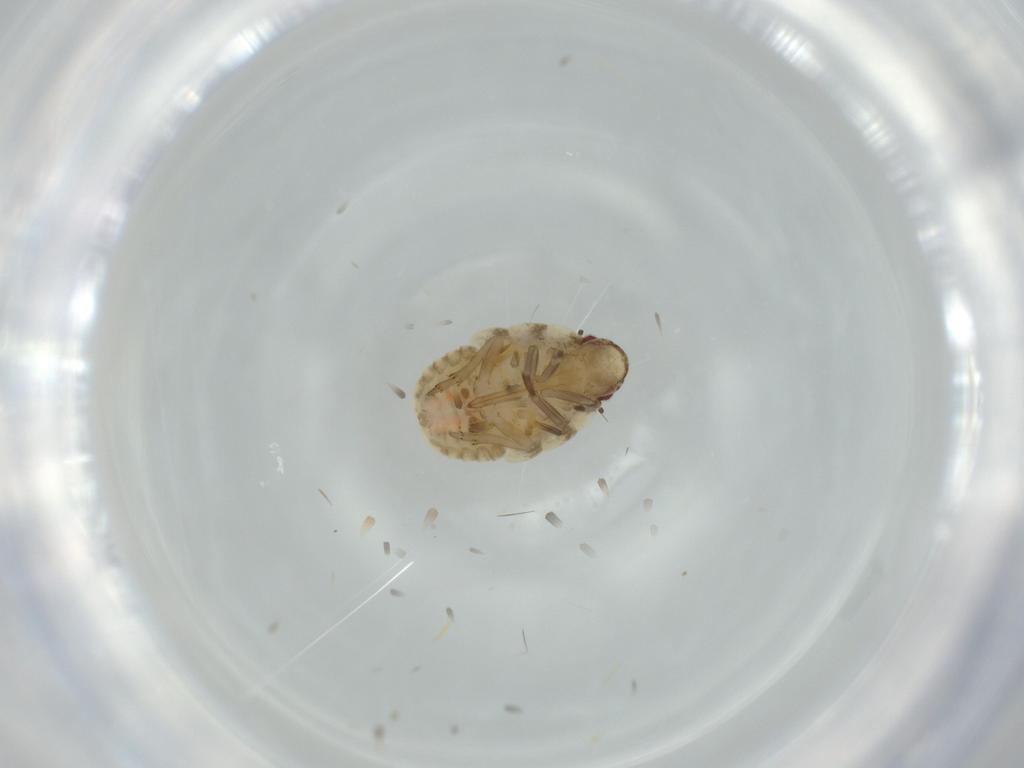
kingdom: Animalia
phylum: Arthropoda
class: Insecta
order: Hemiptera
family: Flatidae
